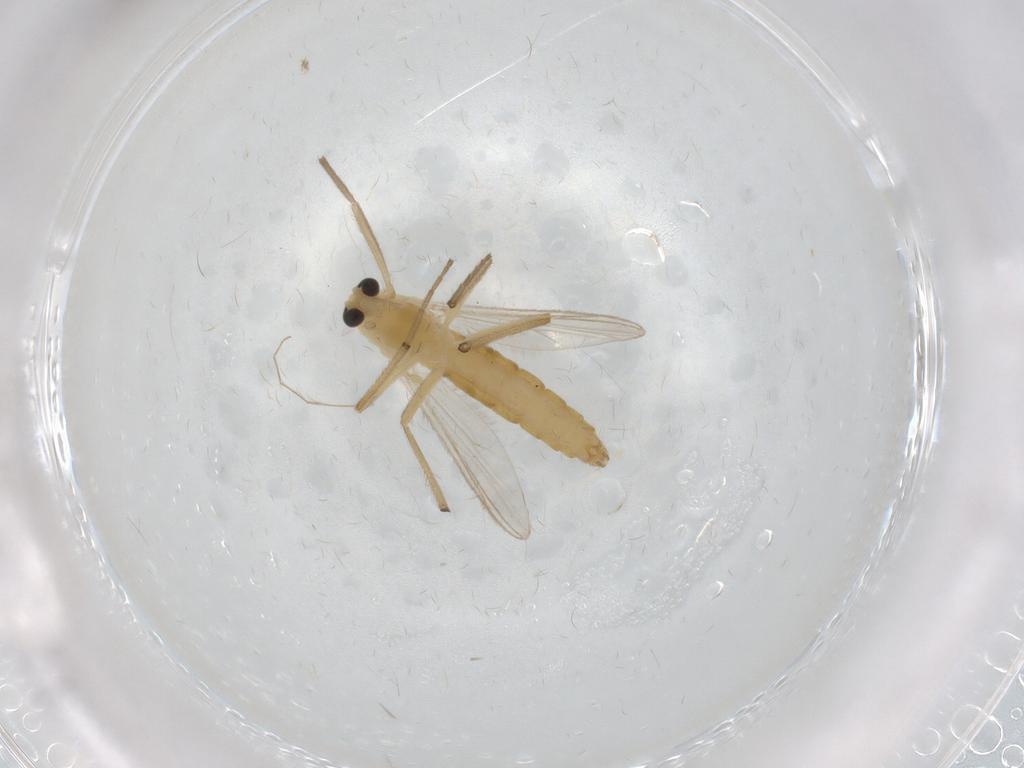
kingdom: Animalia
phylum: Arthropoda
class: Insecta
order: Diptera
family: Chironomidae
